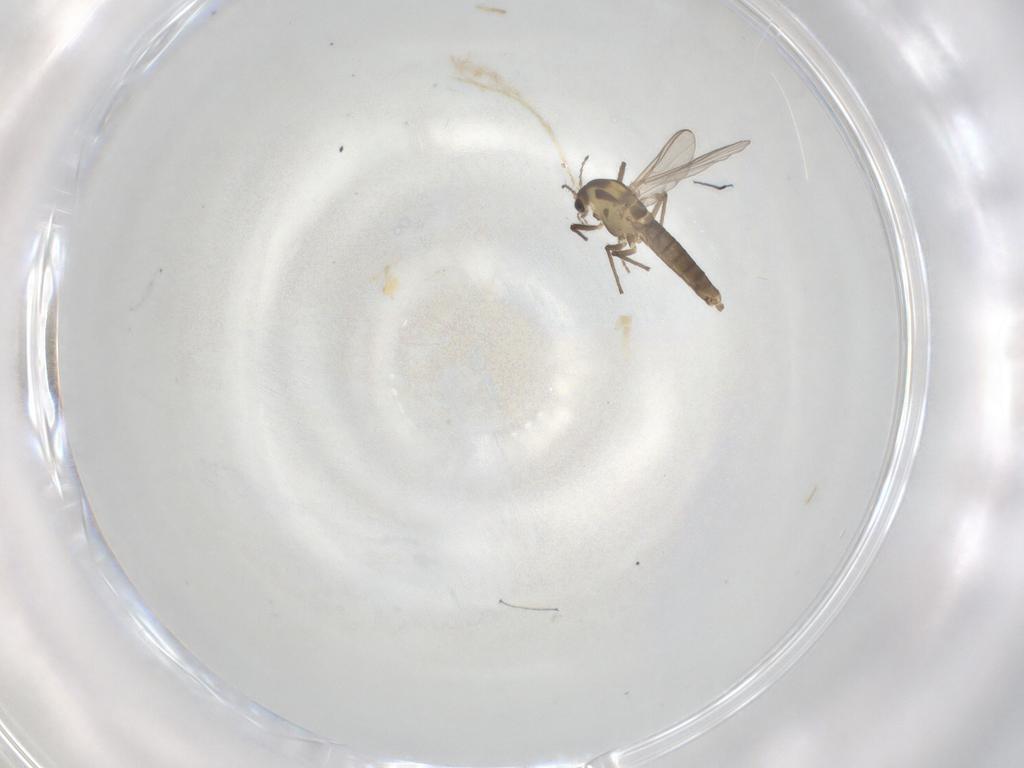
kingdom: Animalia
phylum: Arthropoda
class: Insecta
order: Diptera
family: Chironomidae
